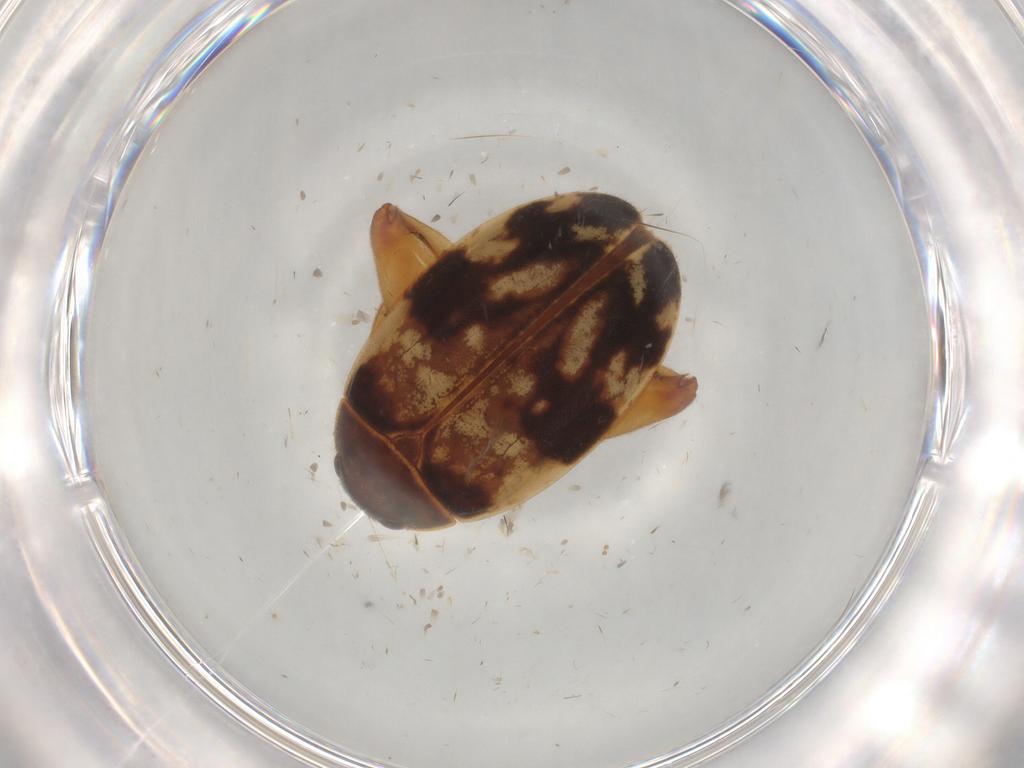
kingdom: Animalia
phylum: Arthropoda
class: Insecta
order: Coleoptera
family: Scirtidae
